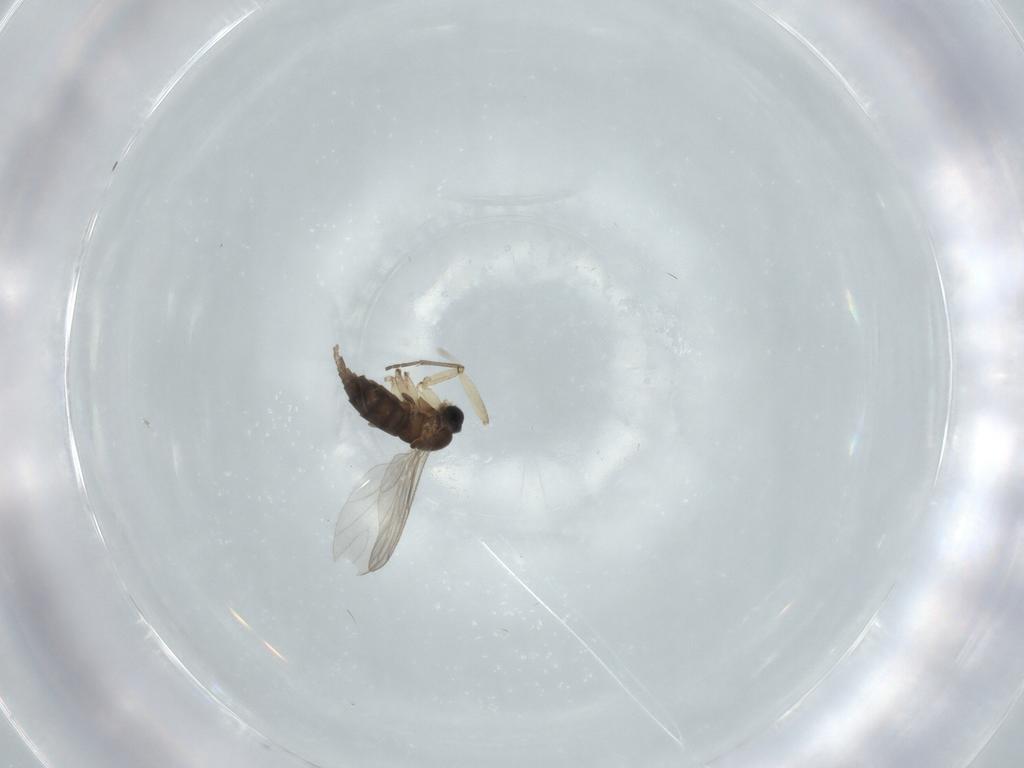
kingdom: Animalia
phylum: Arthropoda
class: Insecta
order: Diptera
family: Sciaridae
